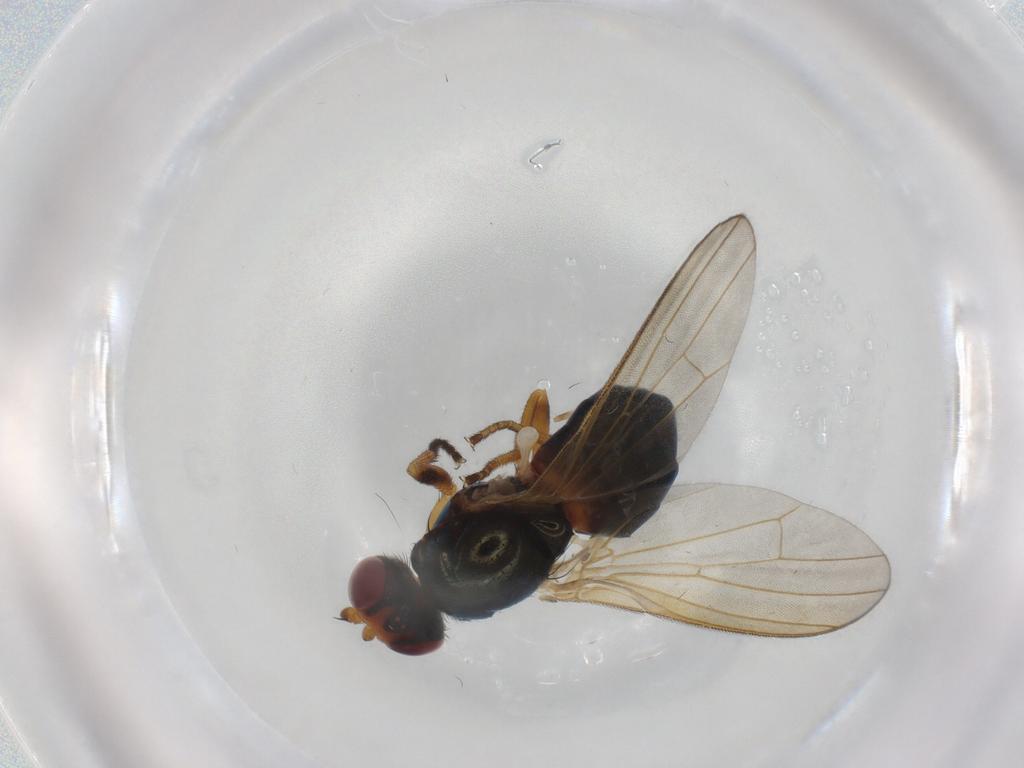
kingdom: Animalia
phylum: Arthropoda
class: Insecta
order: Diptera
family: Piophilidae
